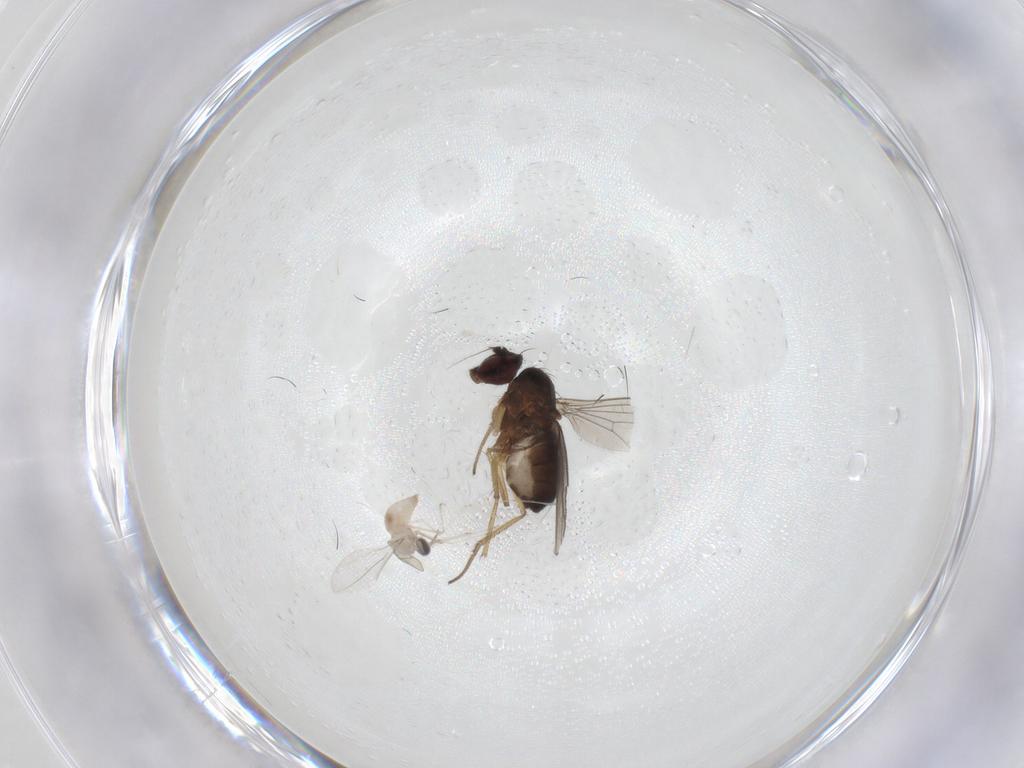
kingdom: Animalia
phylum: Arthropoda
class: Insecta
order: Diptera
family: Dolichopodidae
